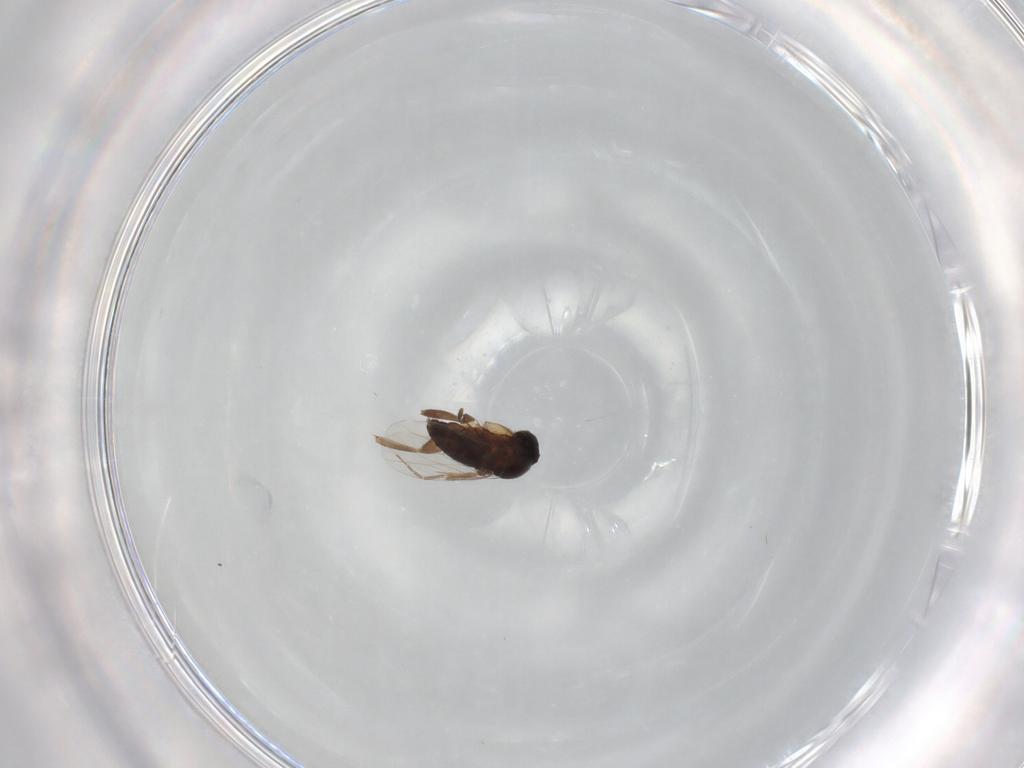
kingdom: Animalia
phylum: Arthropoda
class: Insecta
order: Diptera
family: Phoridae
